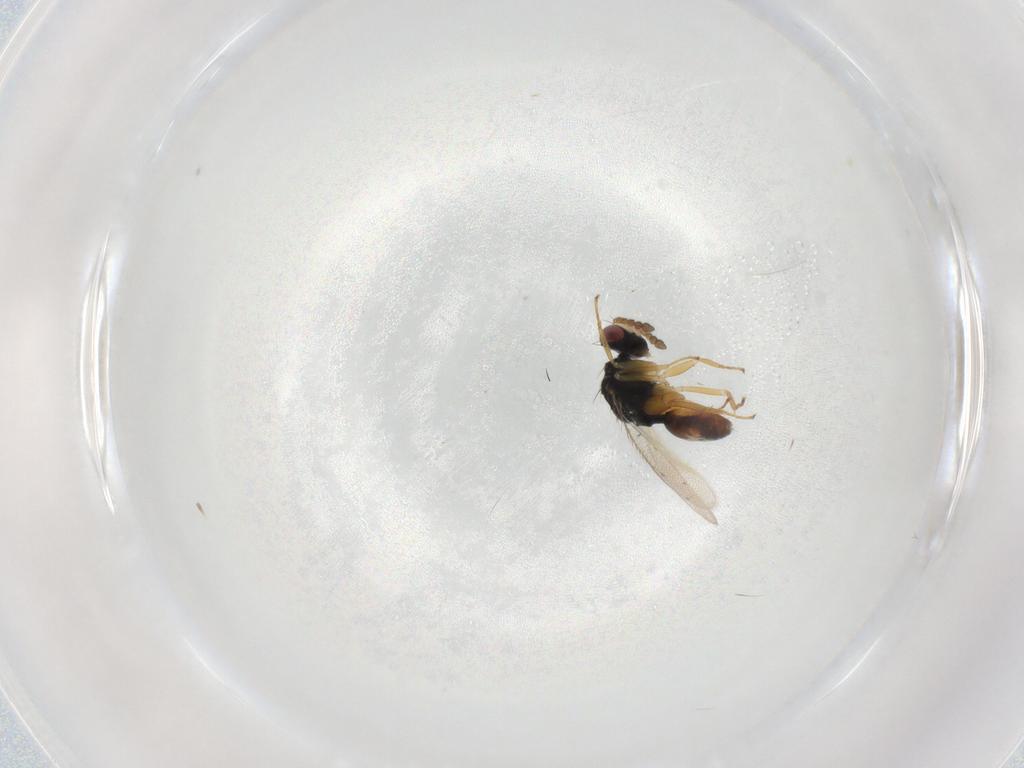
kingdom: Animalia
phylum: Arthropoda
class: Insecta
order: Hymenoptera
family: Eulophidae
